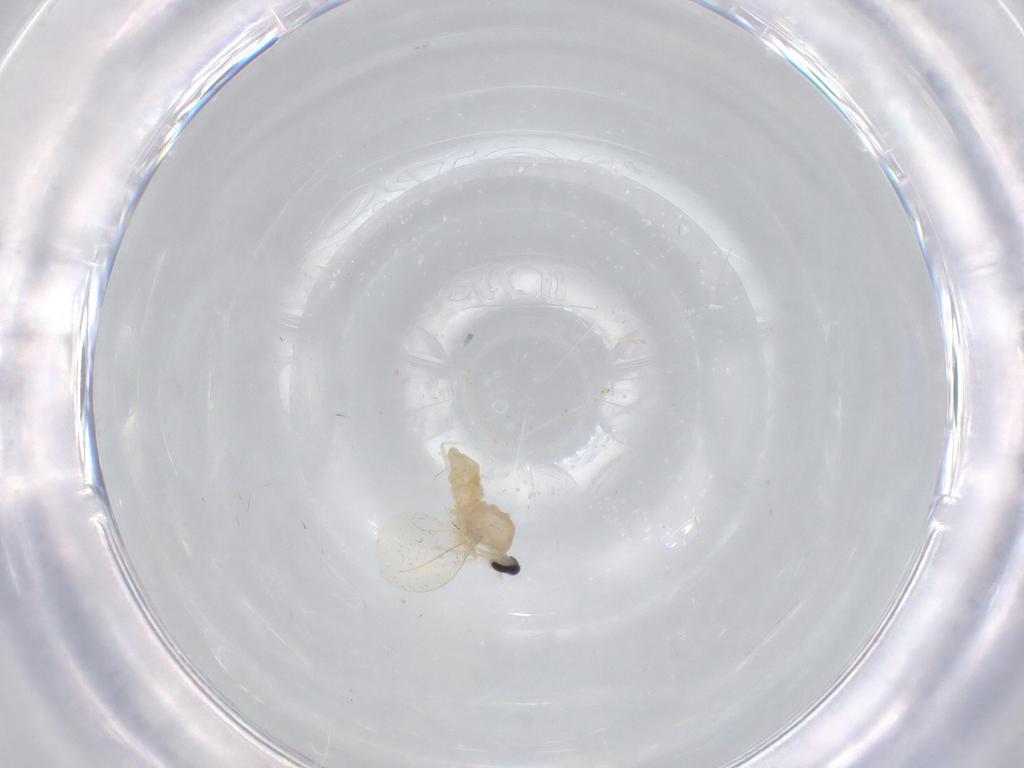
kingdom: Animalia
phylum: Arthropoda
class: Insecta
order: Diptera
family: Cecidomyiidae
